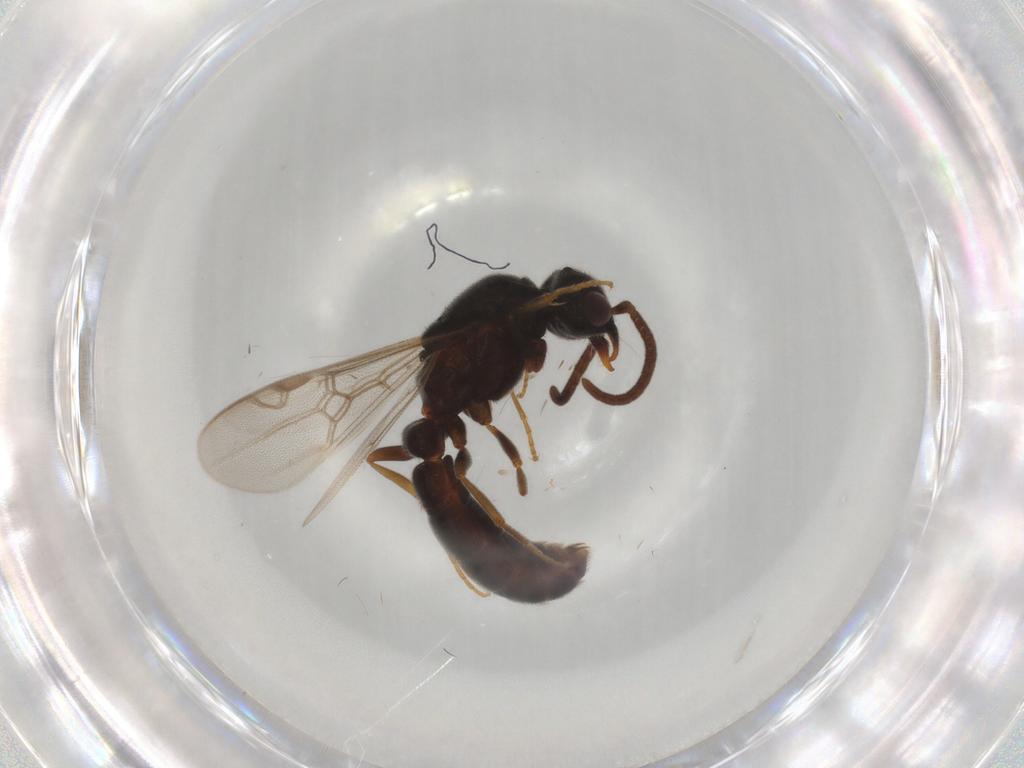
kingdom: Animalia
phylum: Arthropoda
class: Insecta
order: Hymenoptera
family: Formicidae
